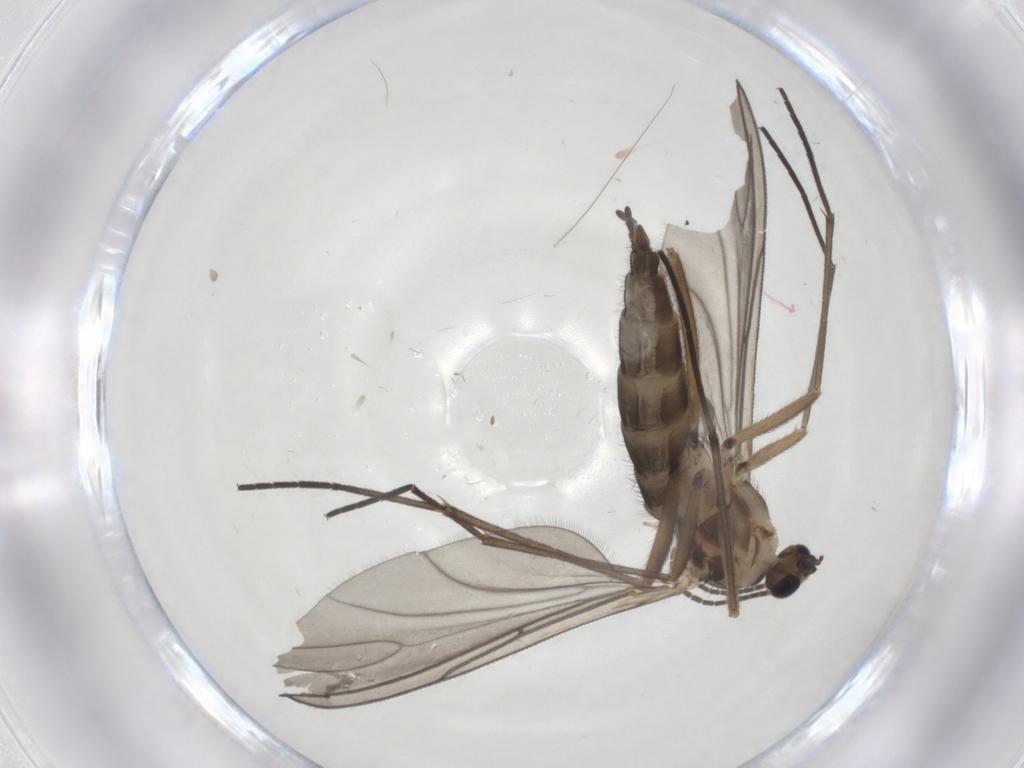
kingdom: Animalia
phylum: Arthropoda
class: Insecta
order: Diptera
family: Sciaridae
